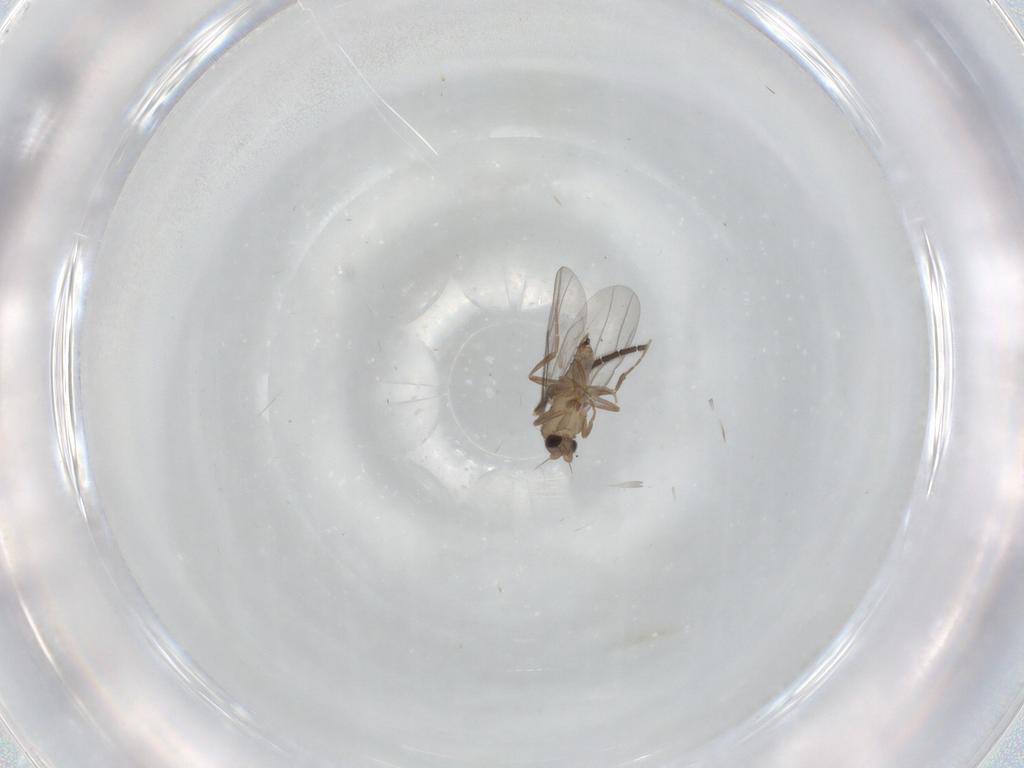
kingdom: Animalia
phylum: Arthropoda
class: Insecta
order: Diptera
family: Sciaridae
